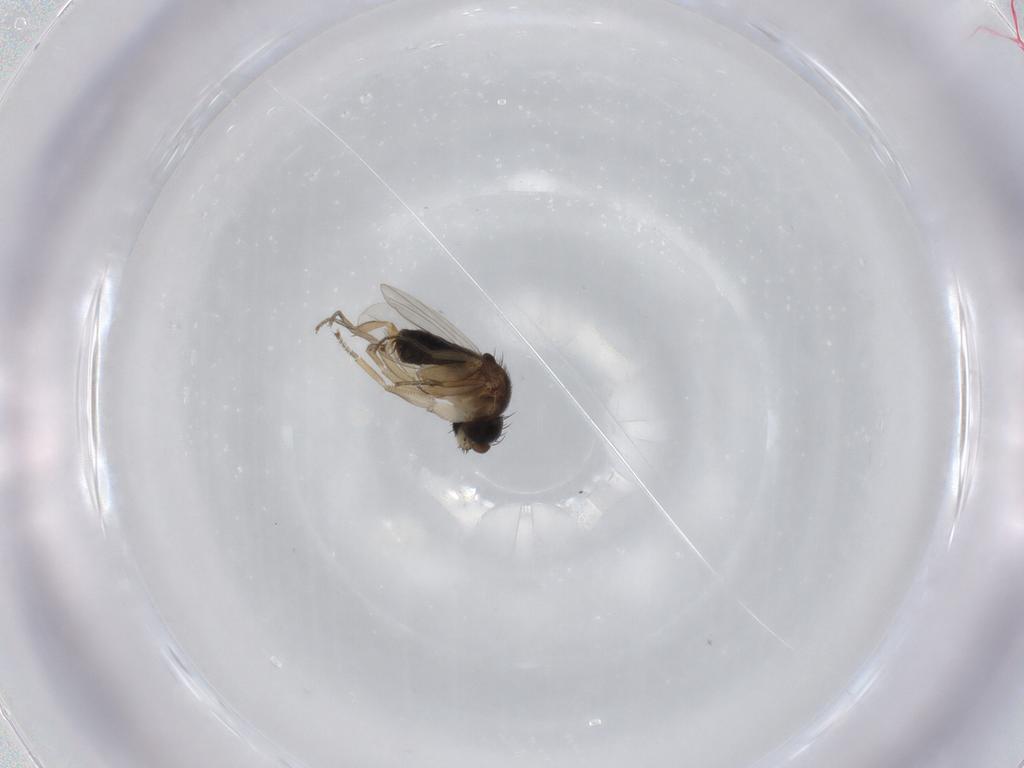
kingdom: Animalia
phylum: Arthropoda
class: Insecta
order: Diptera
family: Phoridae
